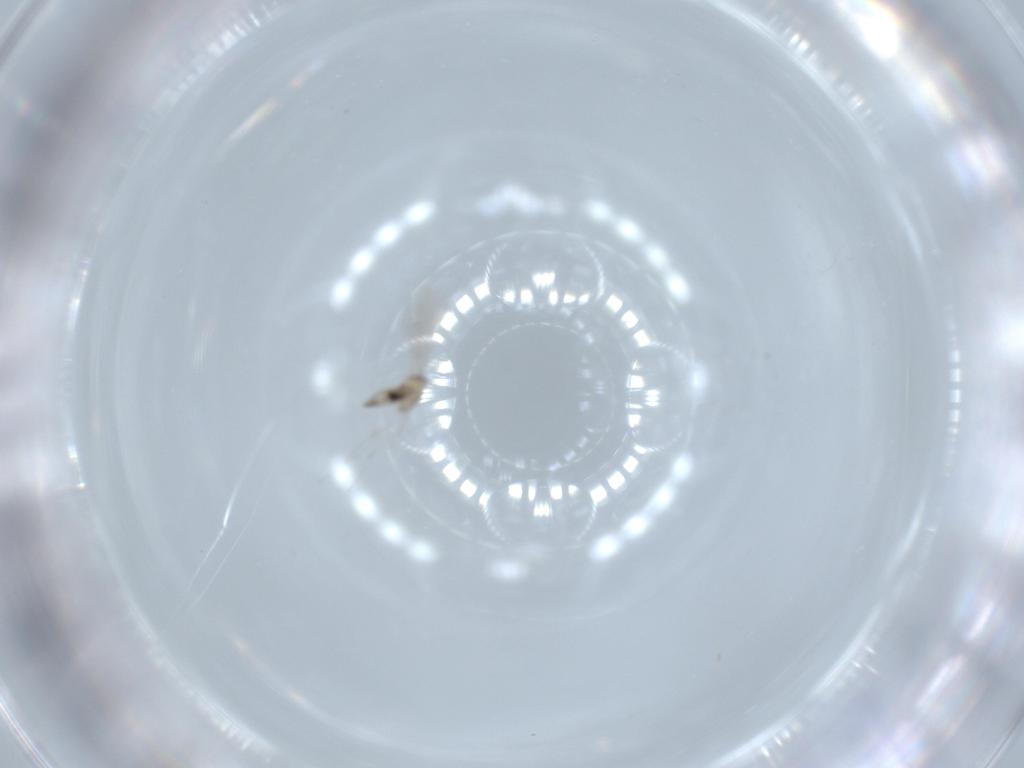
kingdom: Animalia
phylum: Arthropoda
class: Insecta
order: Diptera
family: Cecidomyiidae
